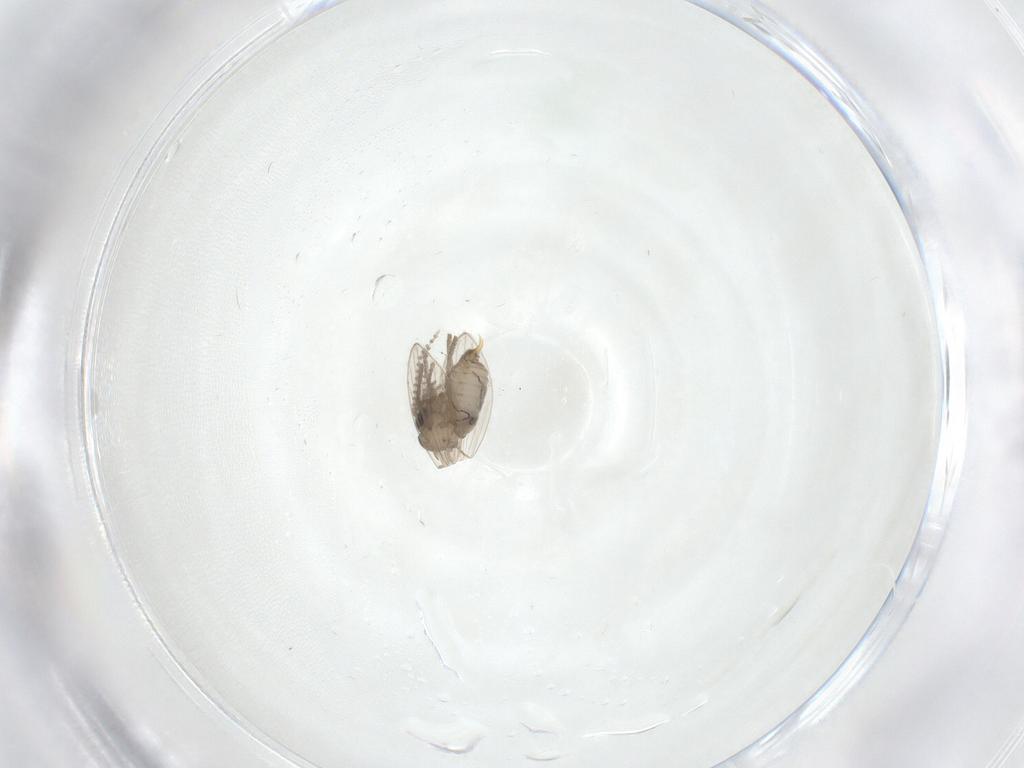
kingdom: Animalia
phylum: Arthropoda
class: Insecta
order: Diptera
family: Psychodidae
